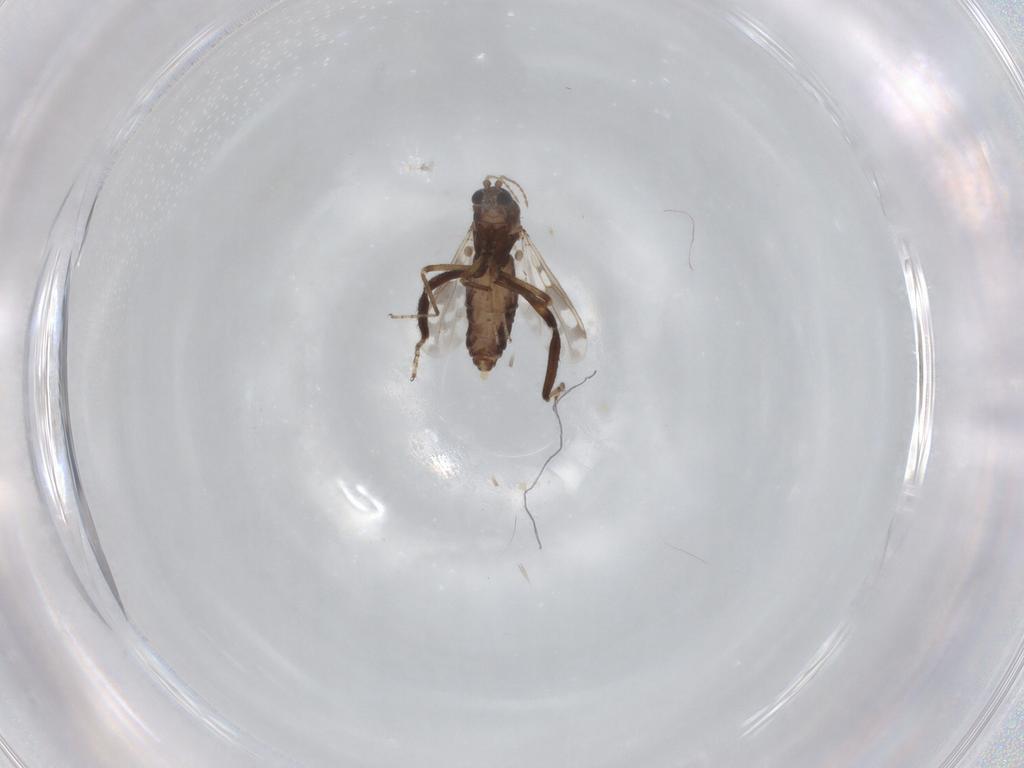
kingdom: Animalia
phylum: Arthropoda
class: Insecta
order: Diptera
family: Ceratopogonidae
